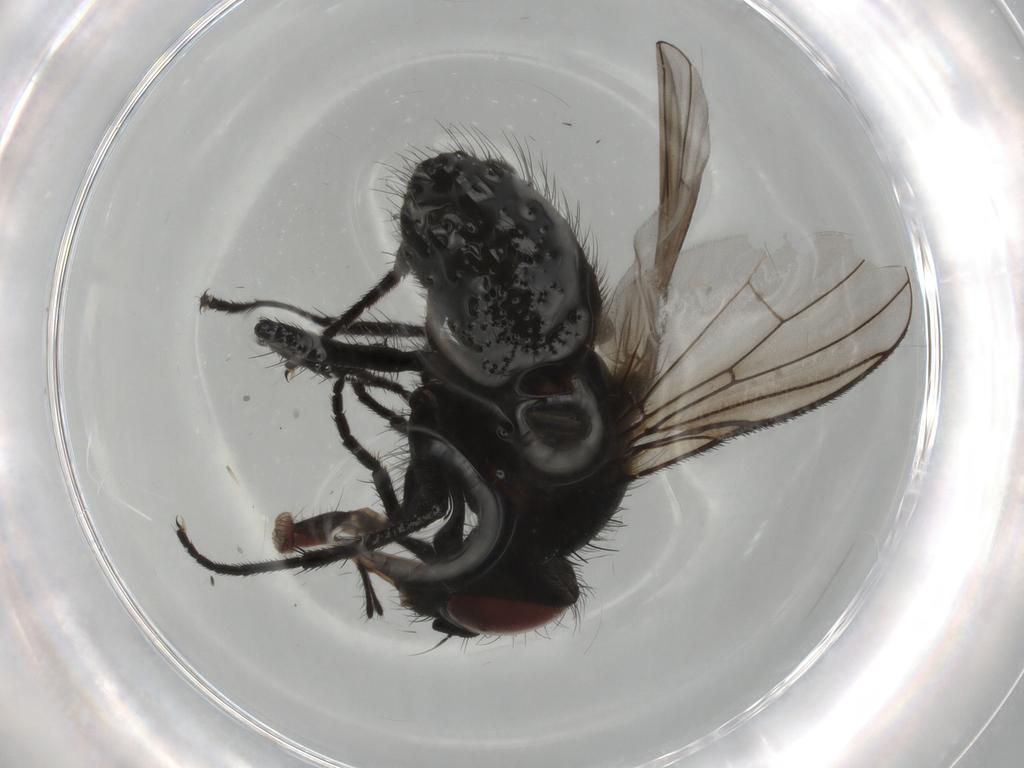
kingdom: Animalia
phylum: Arthropoda
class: Insecta
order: Diptera
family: Muscidae
